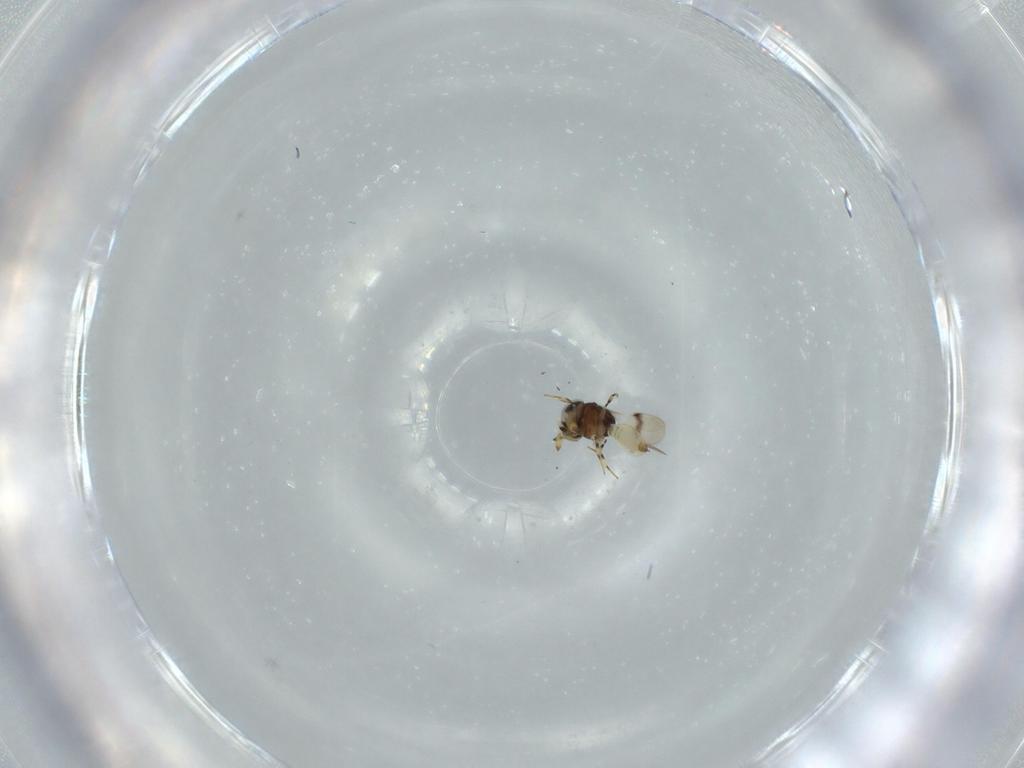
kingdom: Animalia
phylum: Arthropoda
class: Insecta
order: Hymenoptera
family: Scelionidae
